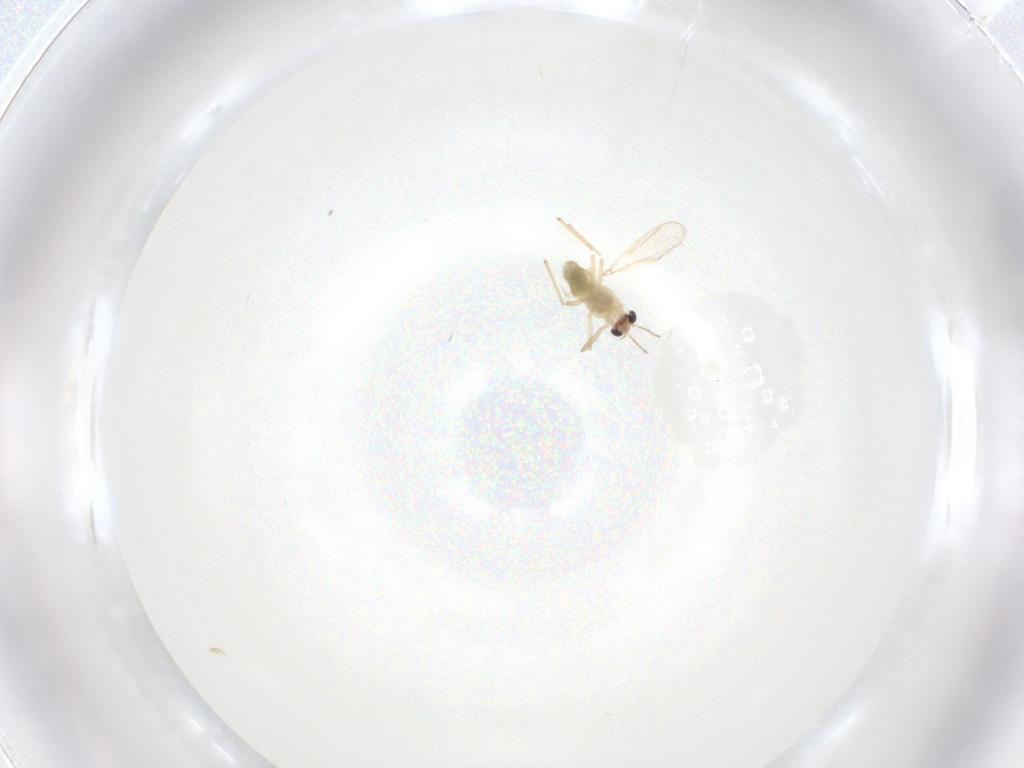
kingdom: Animalia
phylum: Arthropoda
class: Insecta
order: Diptera
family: Chironomidae
